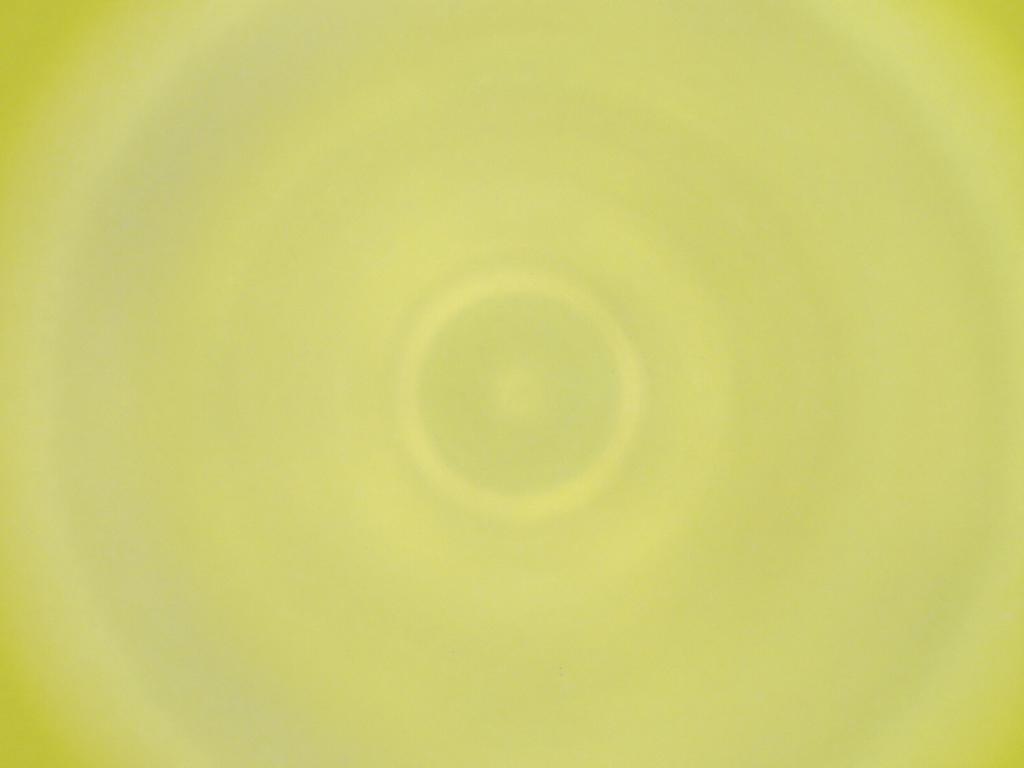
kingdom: Animalia
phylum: Arthropoda
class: Insecta
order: Diptera
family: Cecidomyiidae
